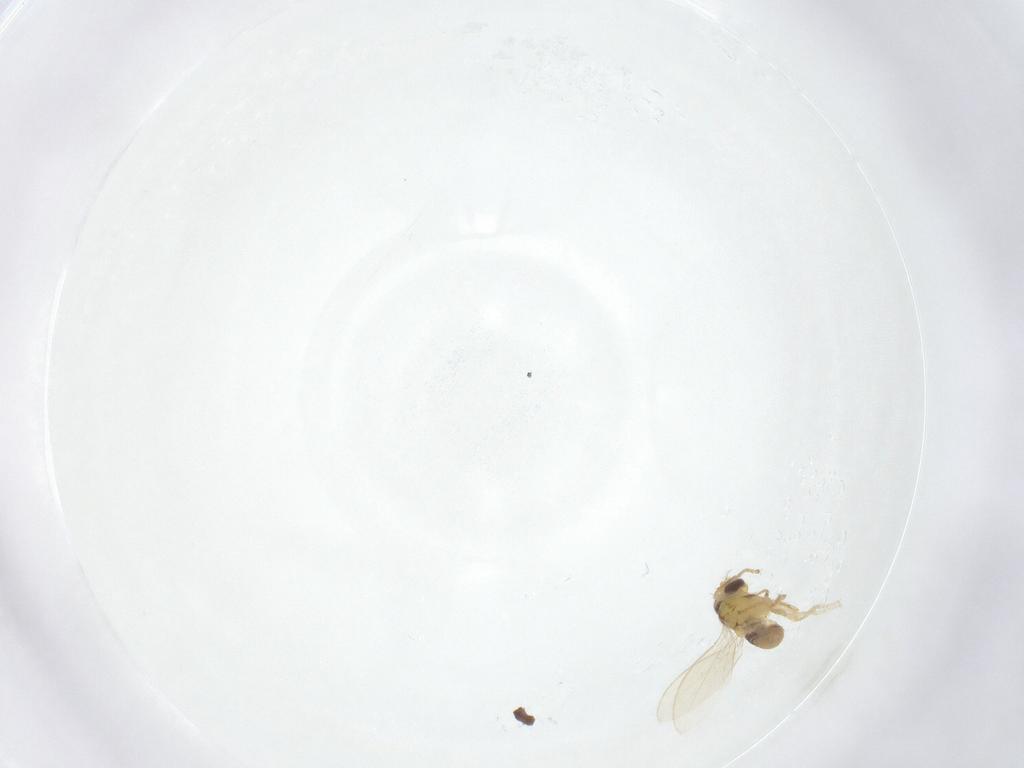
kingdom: Animalia
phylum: Arthropoda
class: Insecta
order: Diptera
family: Periscelididae
